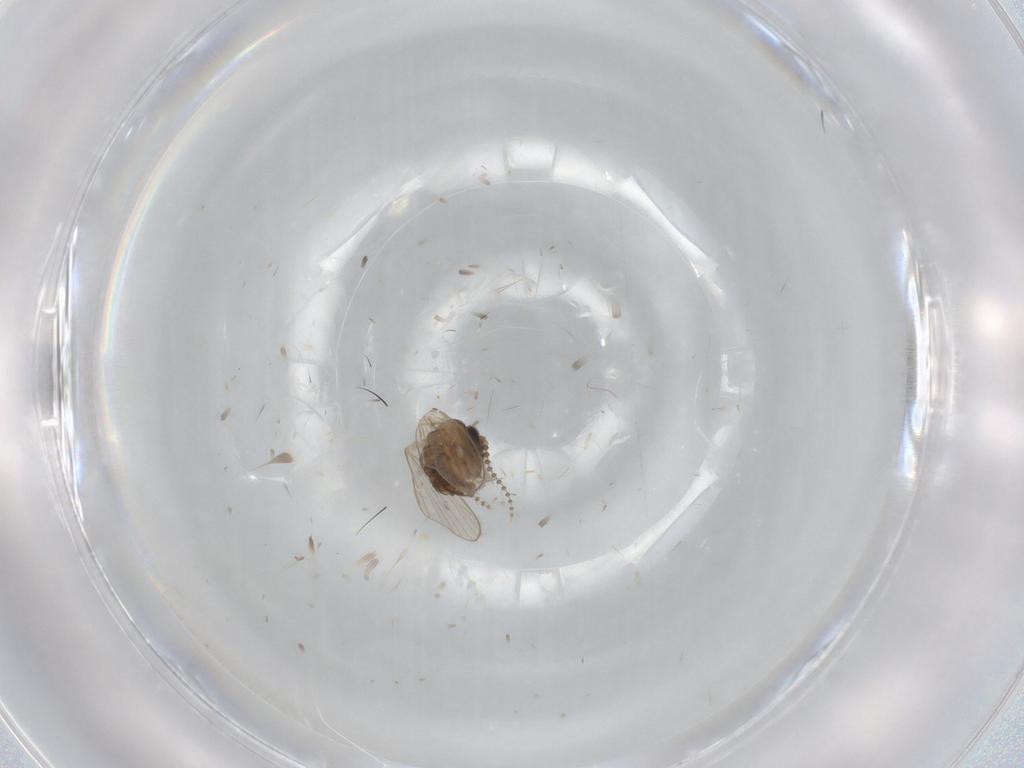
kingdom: Animalia
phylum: Arthropoda
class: Insecta
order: Diptera
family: Psychodidae
